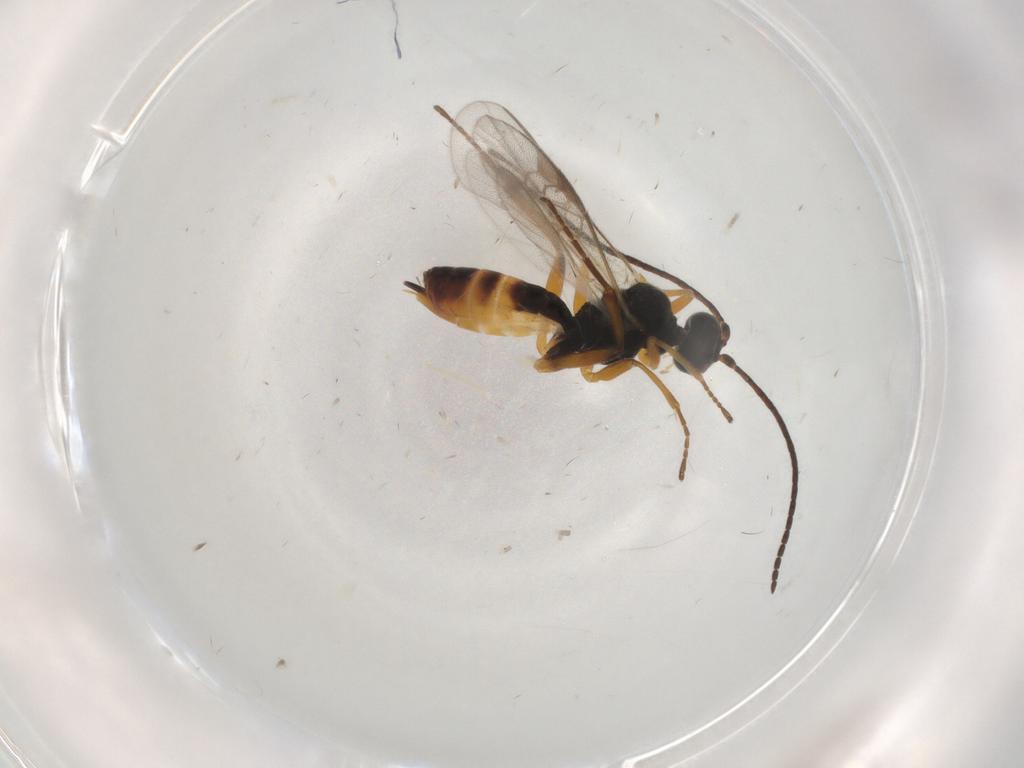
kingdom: Animalia
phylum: Arthropoda
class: Insecta
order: Hymenoptera
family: Braconidae
